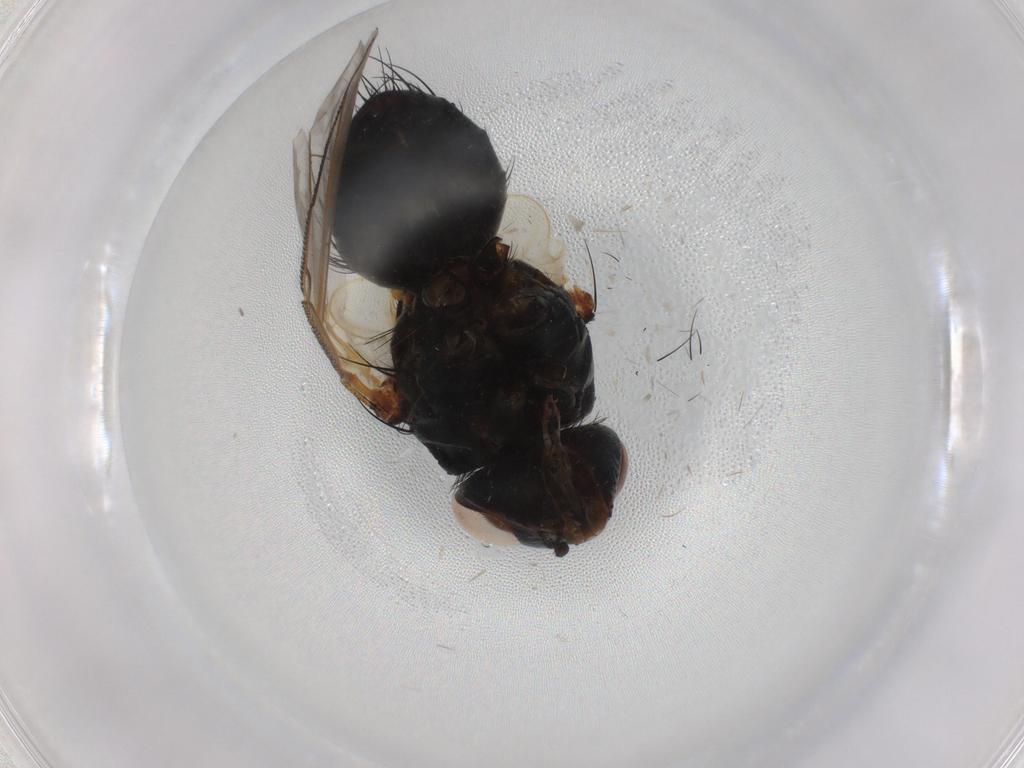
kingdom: Animalia
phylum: Arthropoda
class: Insecta
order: Diptera
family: Tachinidae
